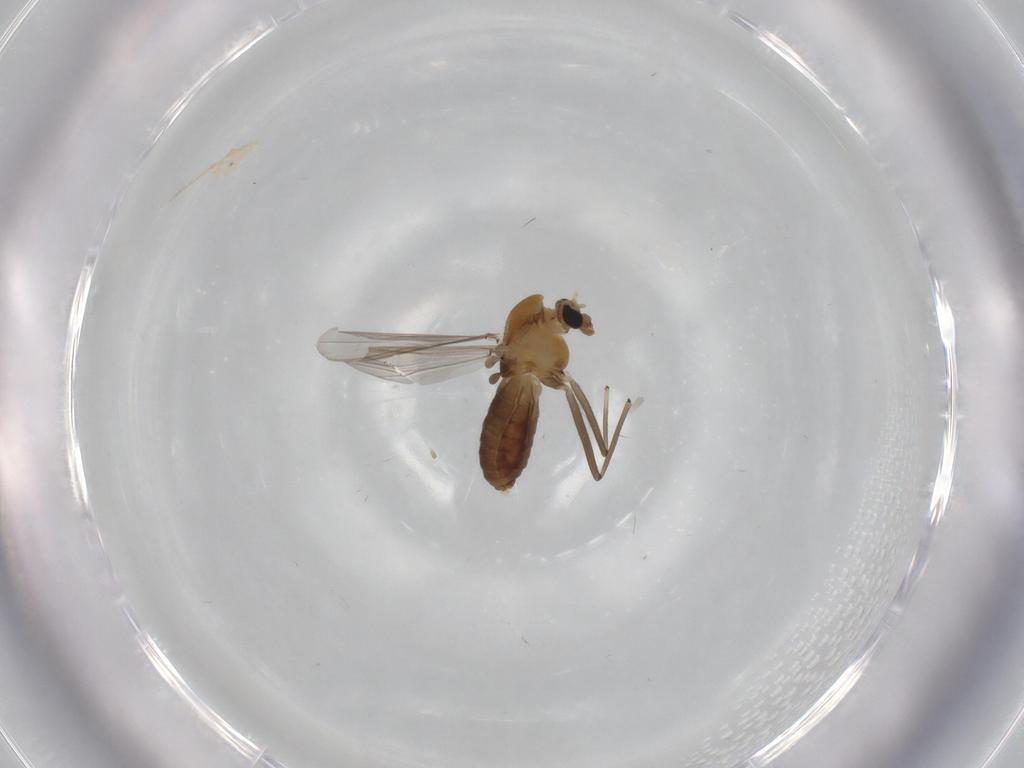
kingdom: Animalia
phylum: Arthropoda
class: Insecta
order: Diptera
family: Chironomidae
